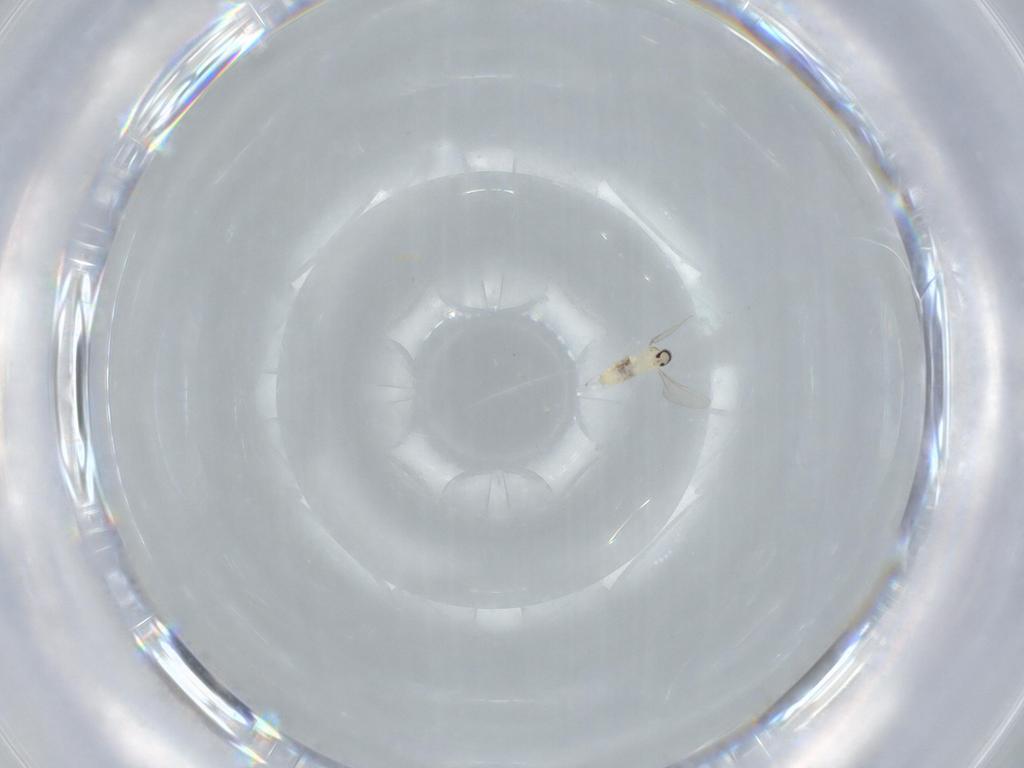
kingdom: Animalia
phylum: Arthropoda
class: Insecta
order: Diptera
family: Cecidomyiidae
